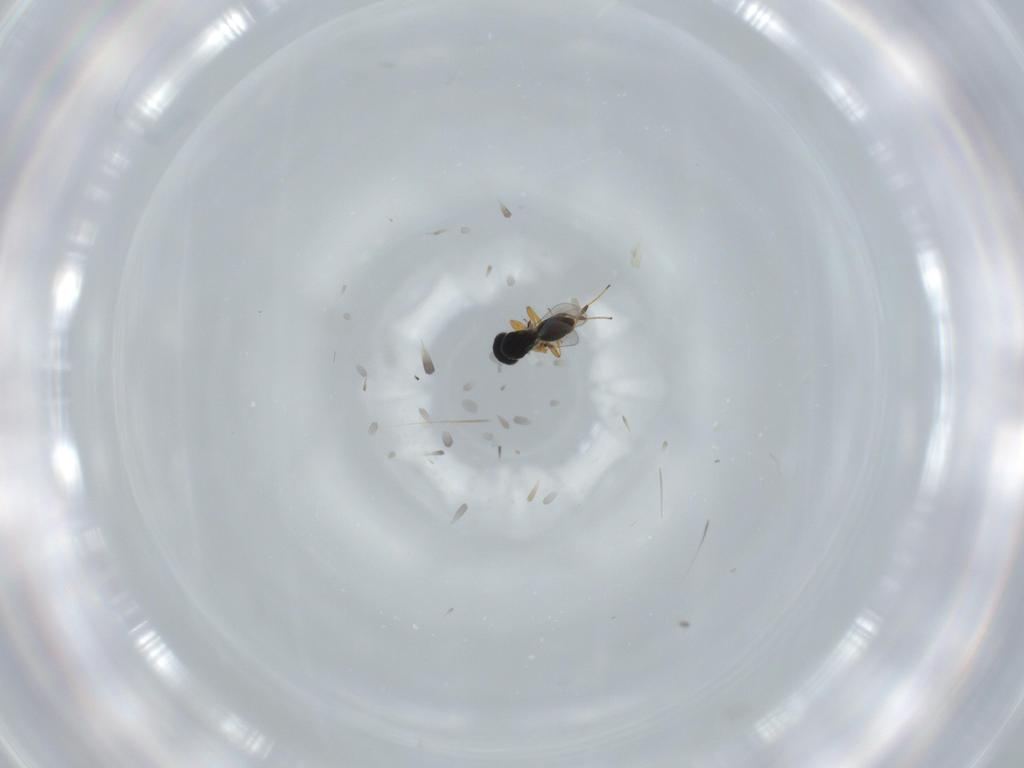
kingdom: Animalia
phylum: Arthropoda
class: Insecta
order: Hymenoptera
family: Platygastridae
